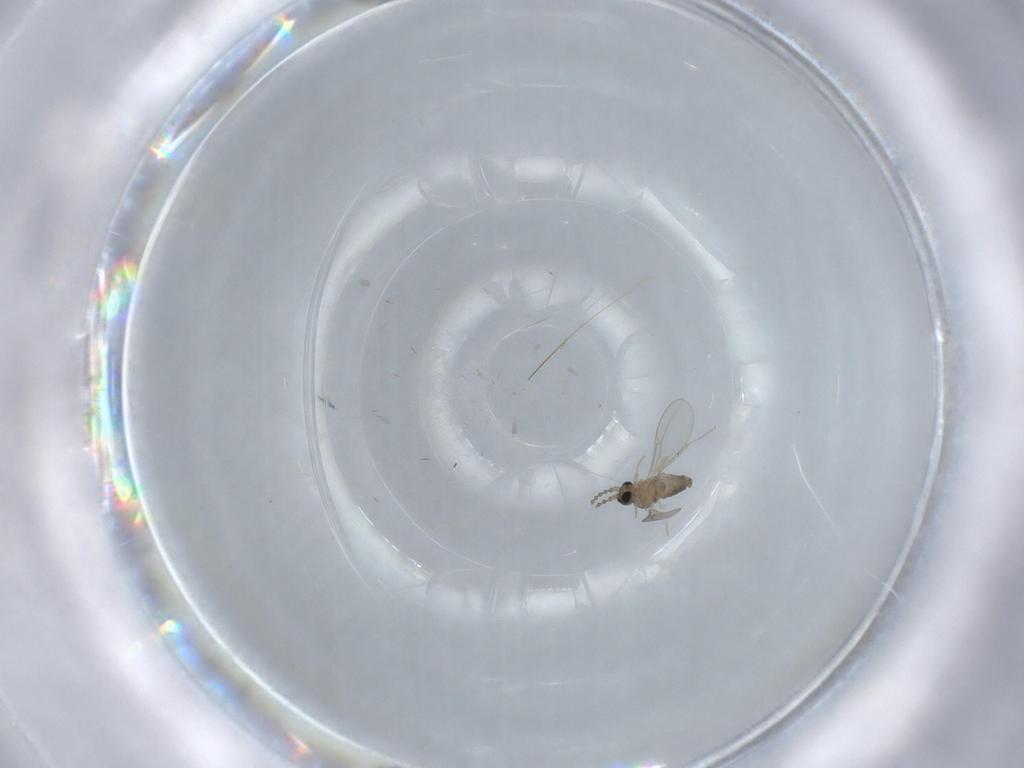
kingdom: Animalia
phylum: Arthropoda
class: Insecta
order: Diptera
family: Cecidomyiidae
